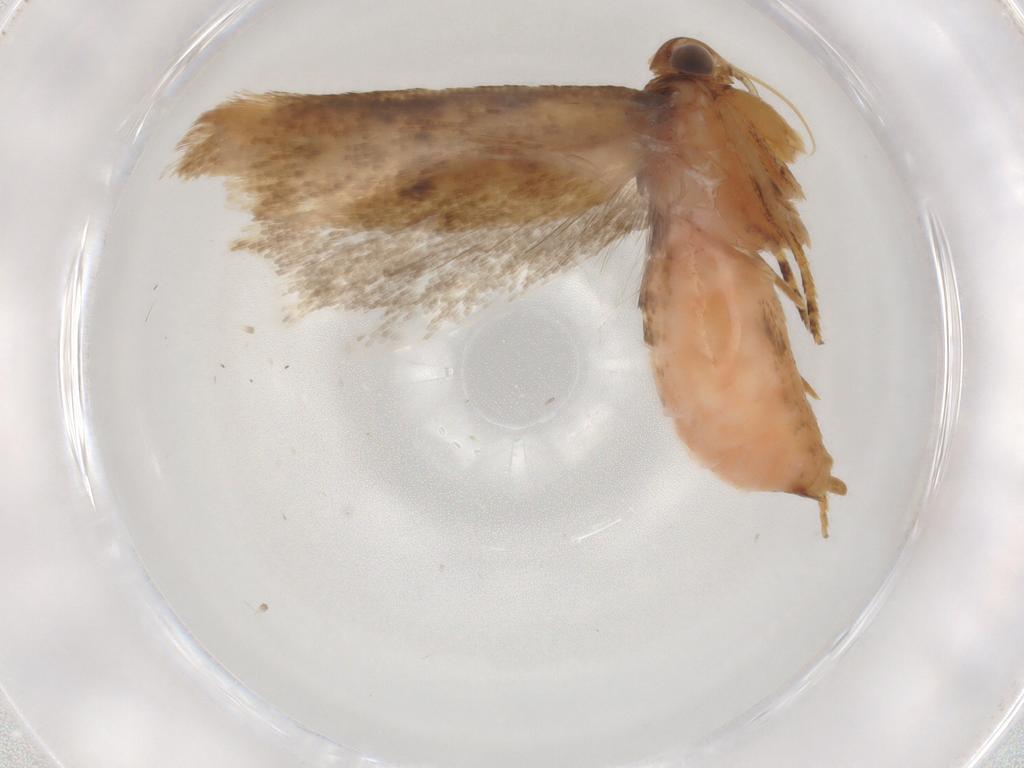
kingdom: Animalia
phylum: Arthropoda
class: Insecta
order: Lepidoptera
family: Gelechiidae
